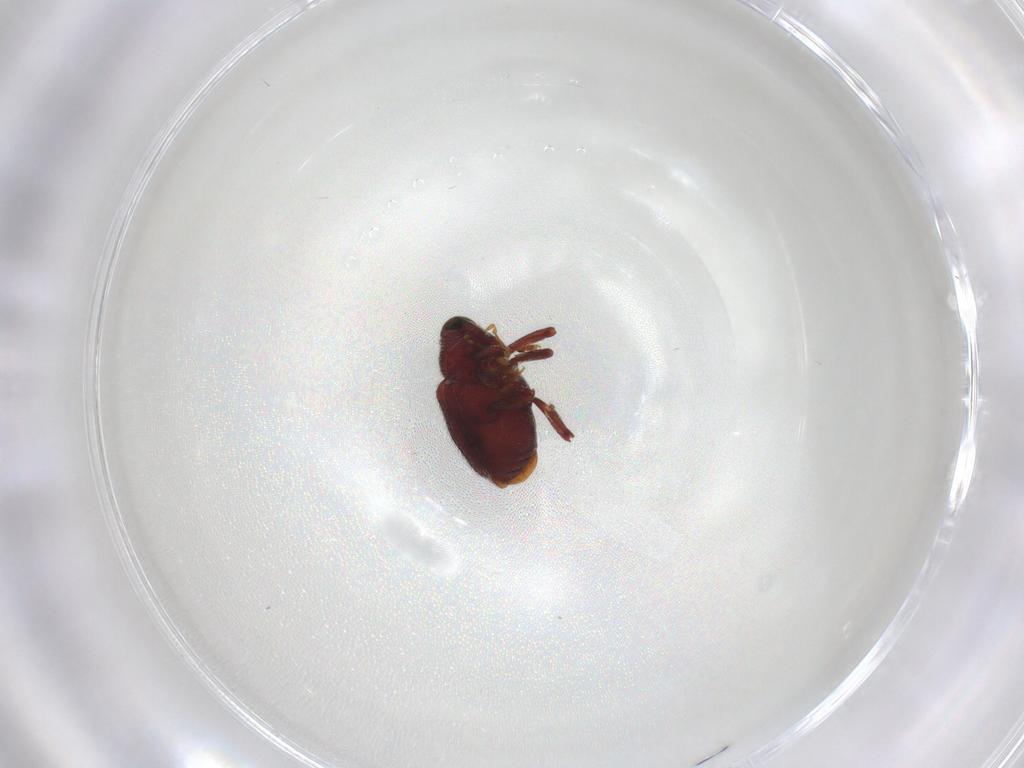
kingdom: Animalia
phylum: Arthropoda
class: Insecta
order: Coleoptera
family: Curculionidae
